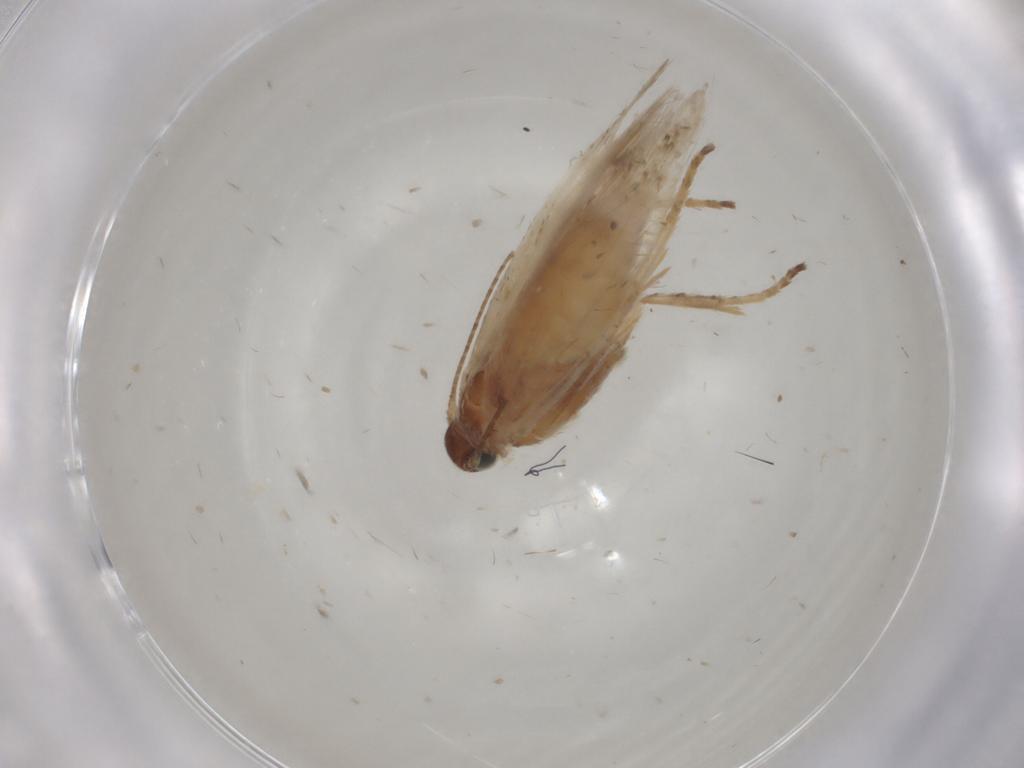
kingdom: Animalia
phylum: Arthropoda
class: Insecta
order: Lepidoptera
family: Gelechiidae
